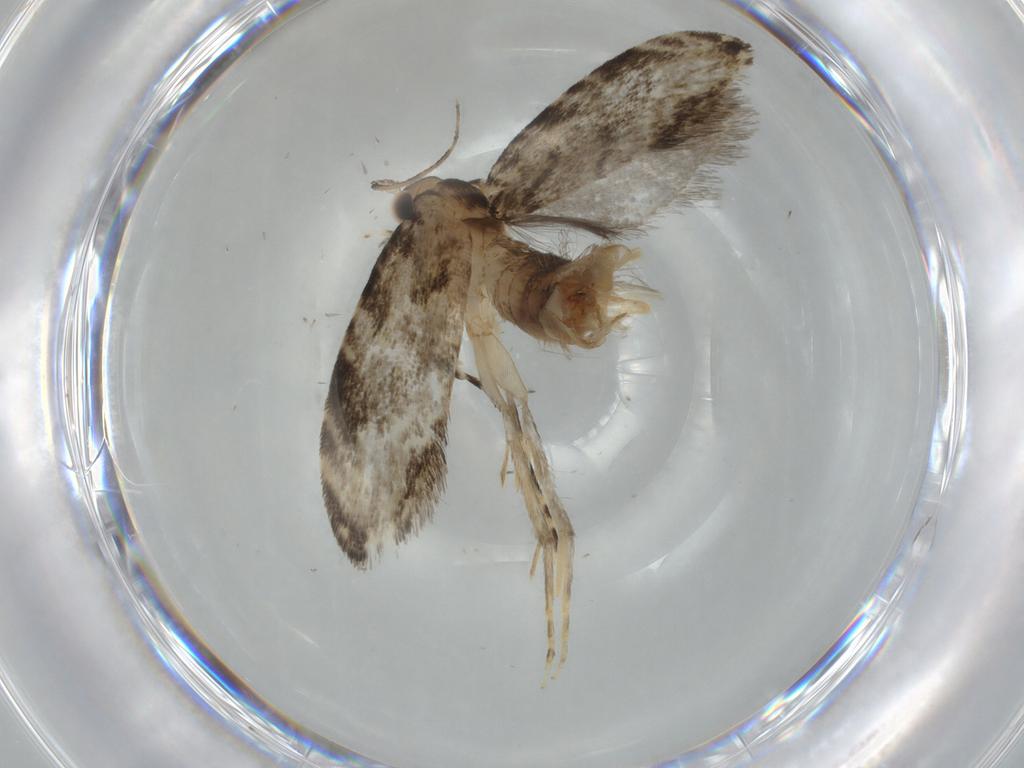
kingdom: Animalia
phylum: Arthropoda
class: Insecta
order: Lepidoptera
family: Tineidae
